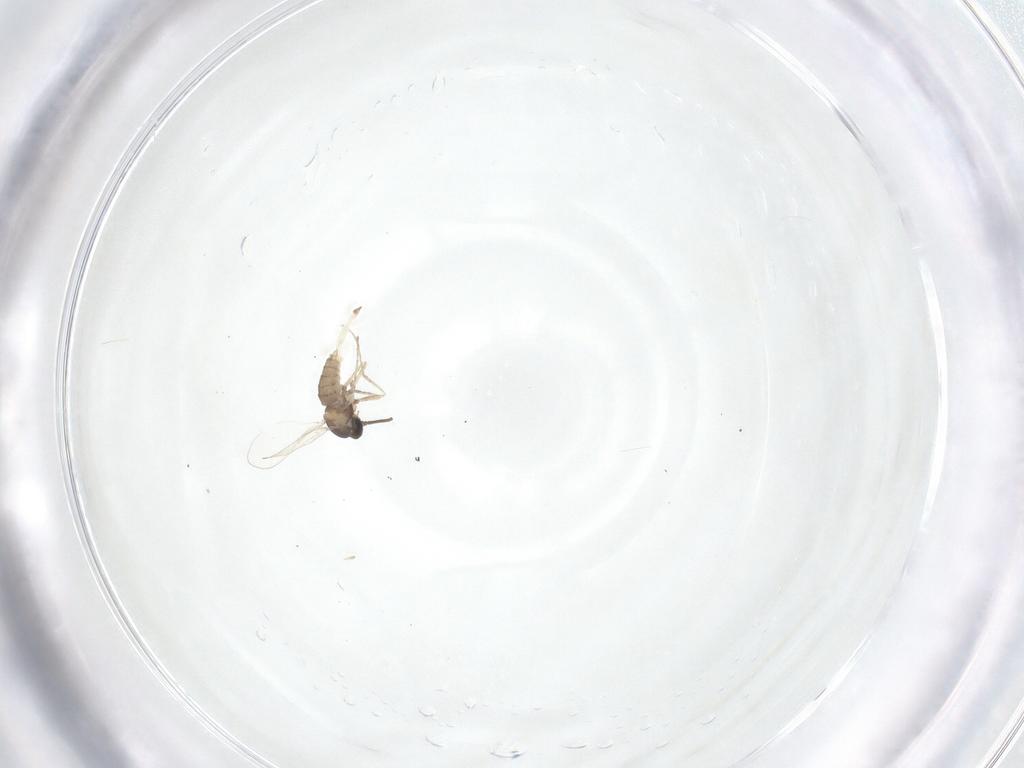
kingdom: Animalia
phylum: Arthropoda
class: Insecta
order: Diptera
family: Cecidomyiidae
